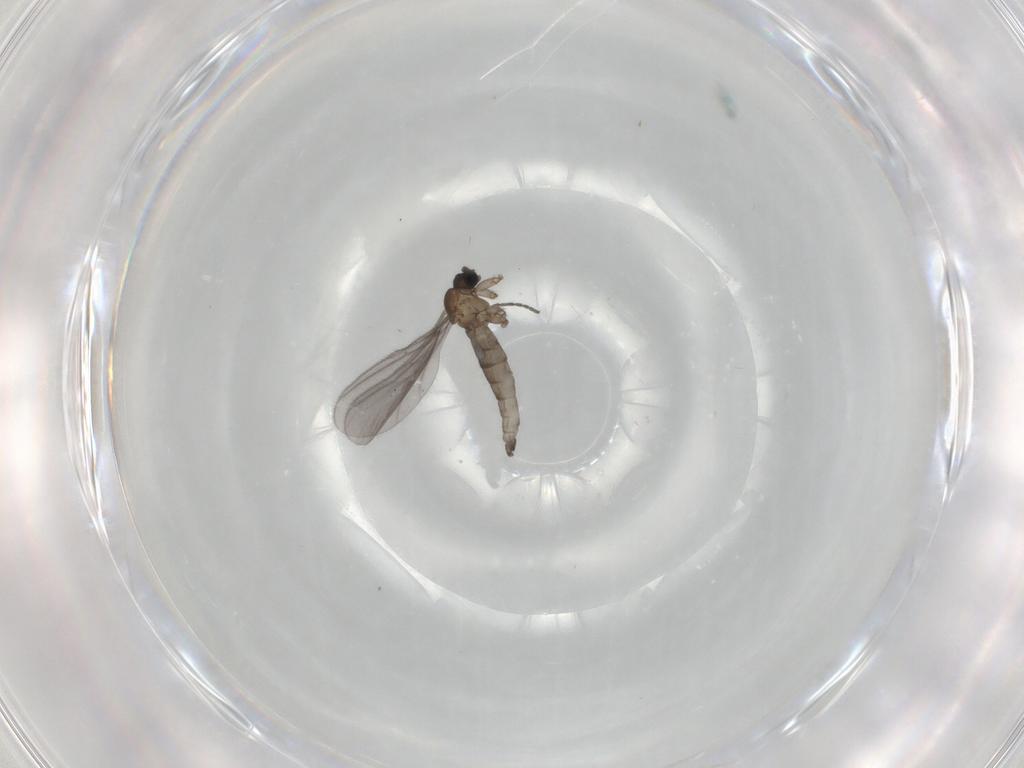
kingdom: Animalia
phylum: Arthropoda
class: Insecta
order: Diptera
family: Sciaridae
